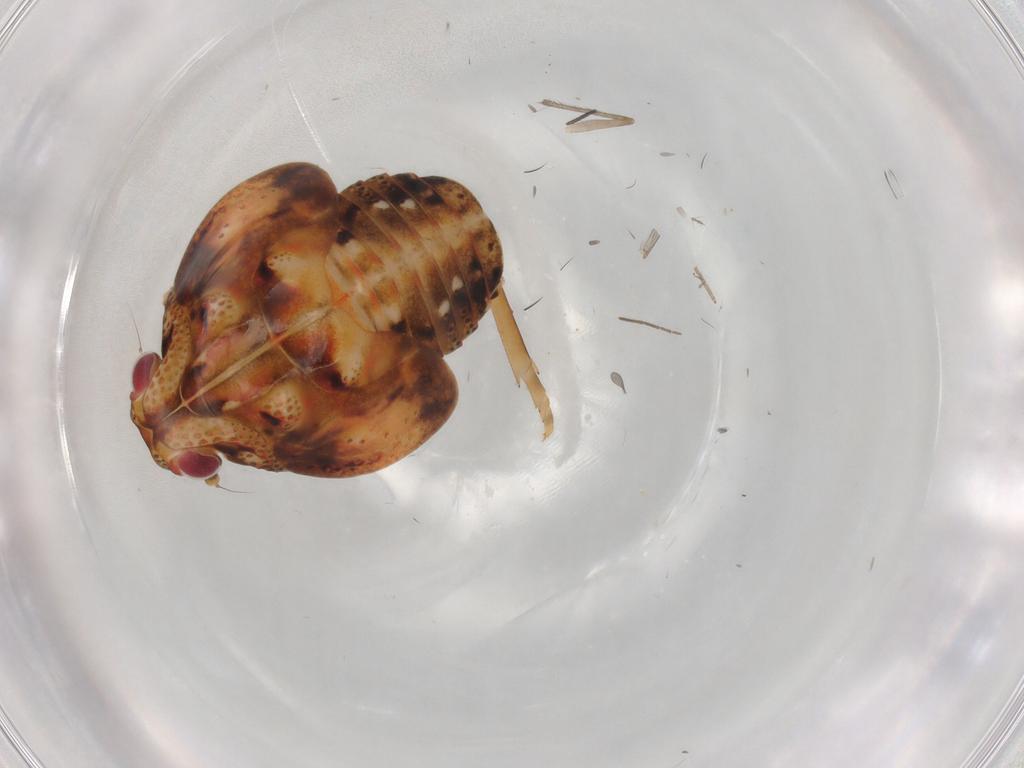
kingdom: Animalia
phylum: Arthropoda
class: Insecta
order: Hemiptera
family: Flatidae
